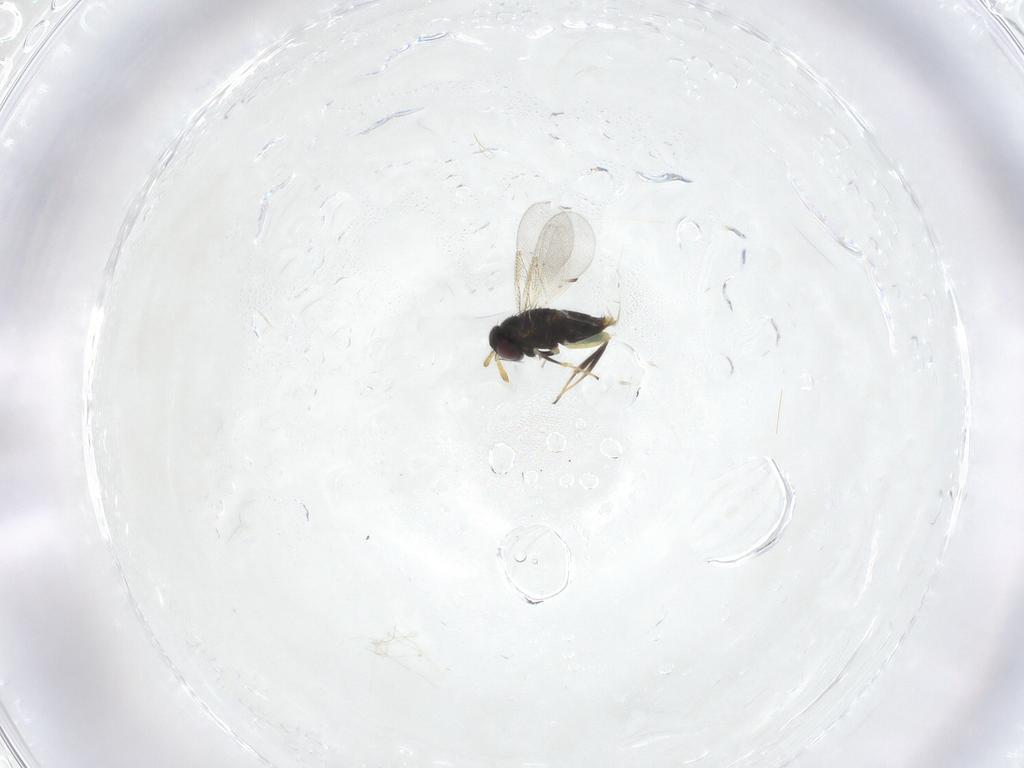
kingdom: Animalia
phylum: Arthropoda
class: Insecta
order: Hymenoptera
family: Aphelinidae
